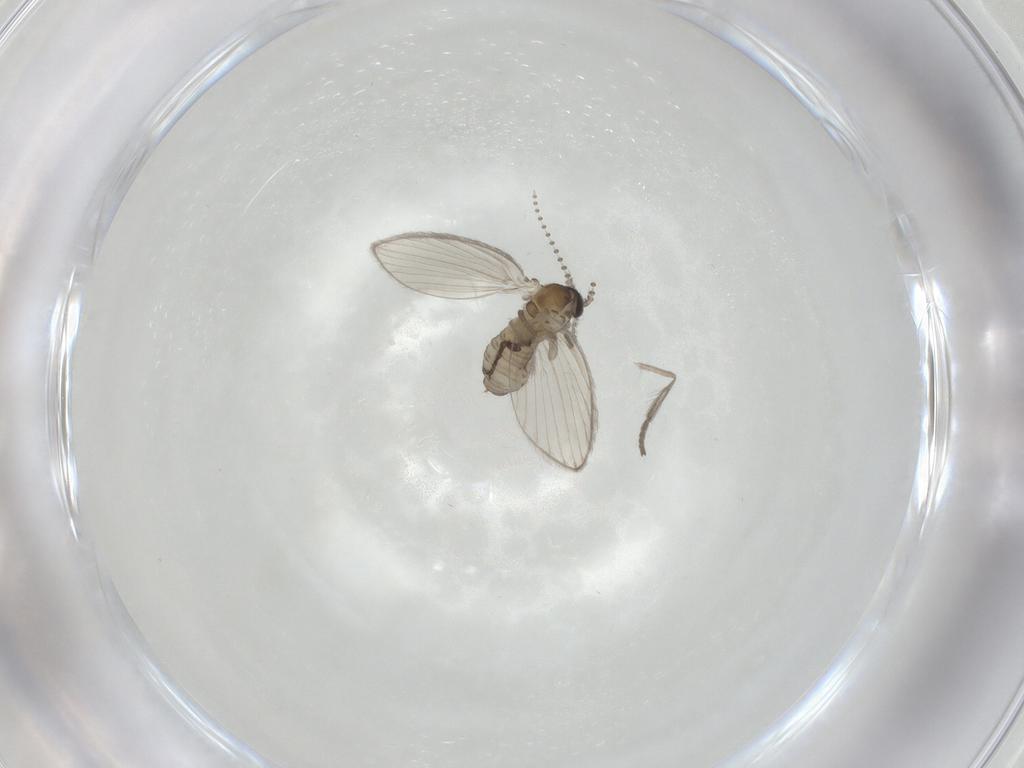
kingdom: Animalia
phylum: Arthropoda
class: Insecta
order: Diptera
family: Psychodidae
